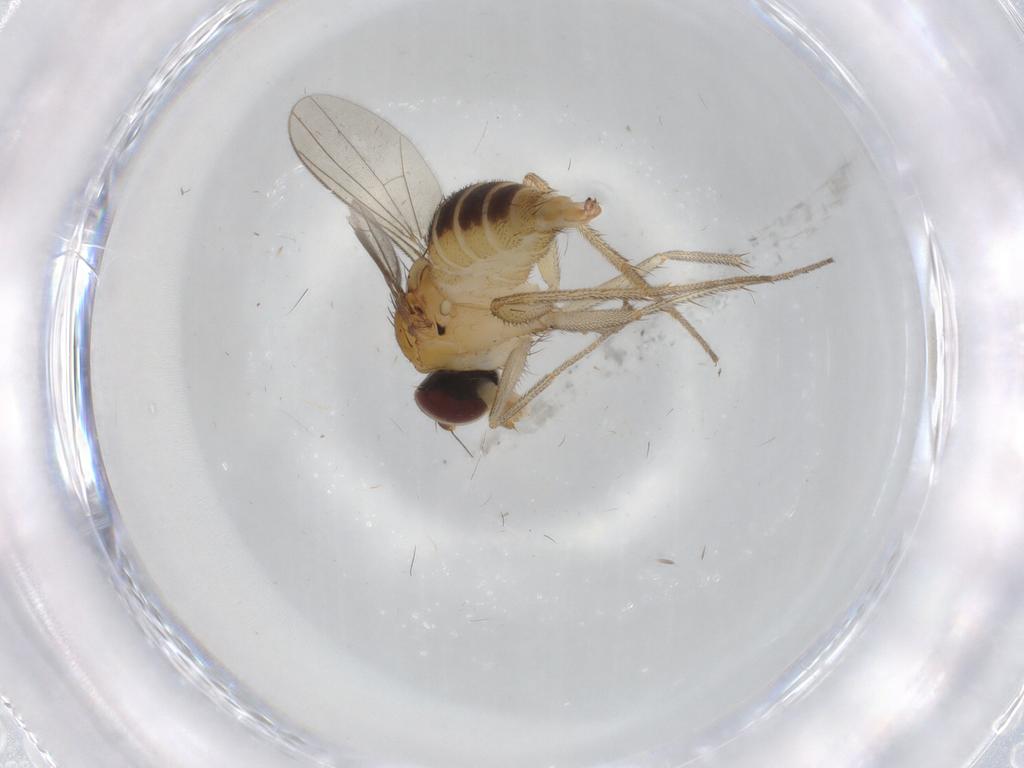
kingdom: Animalia
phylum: Arthropoda
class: Insecta
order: Diptera
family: Dolichopodidae
